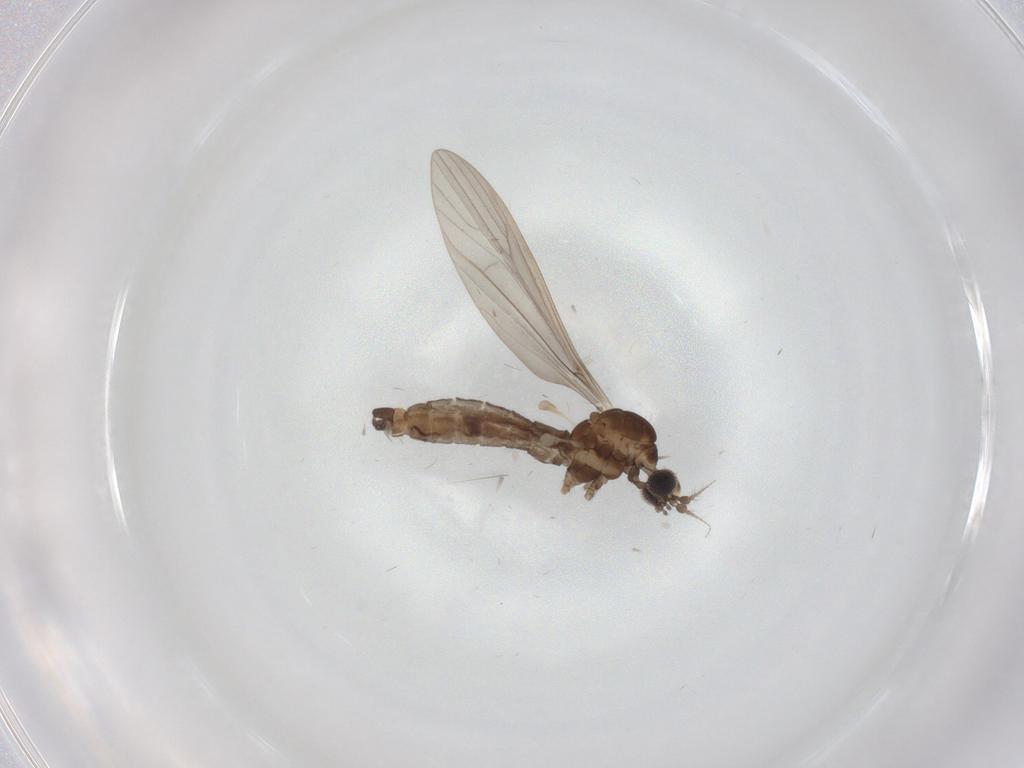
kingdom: Animalia
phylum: Arthropoda
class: Insecta
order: Diptera
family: Limoniidae
